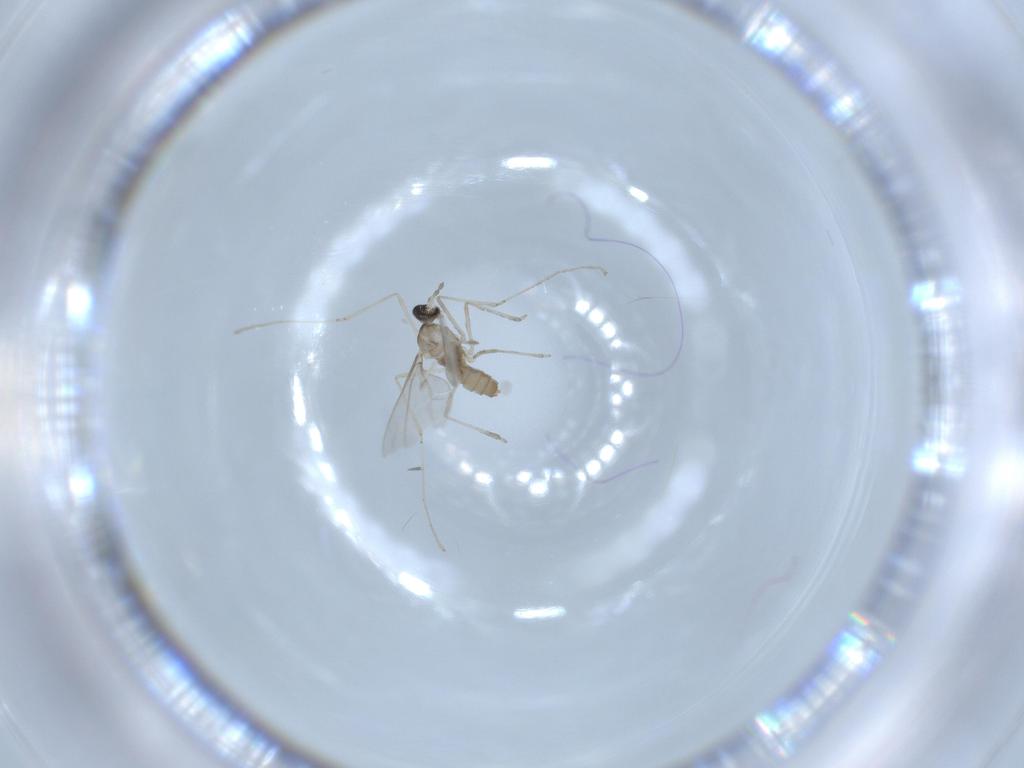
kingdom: Animalia
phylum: Arthropoda
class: Insecta
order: Diptera
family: Cecidomyiidae
